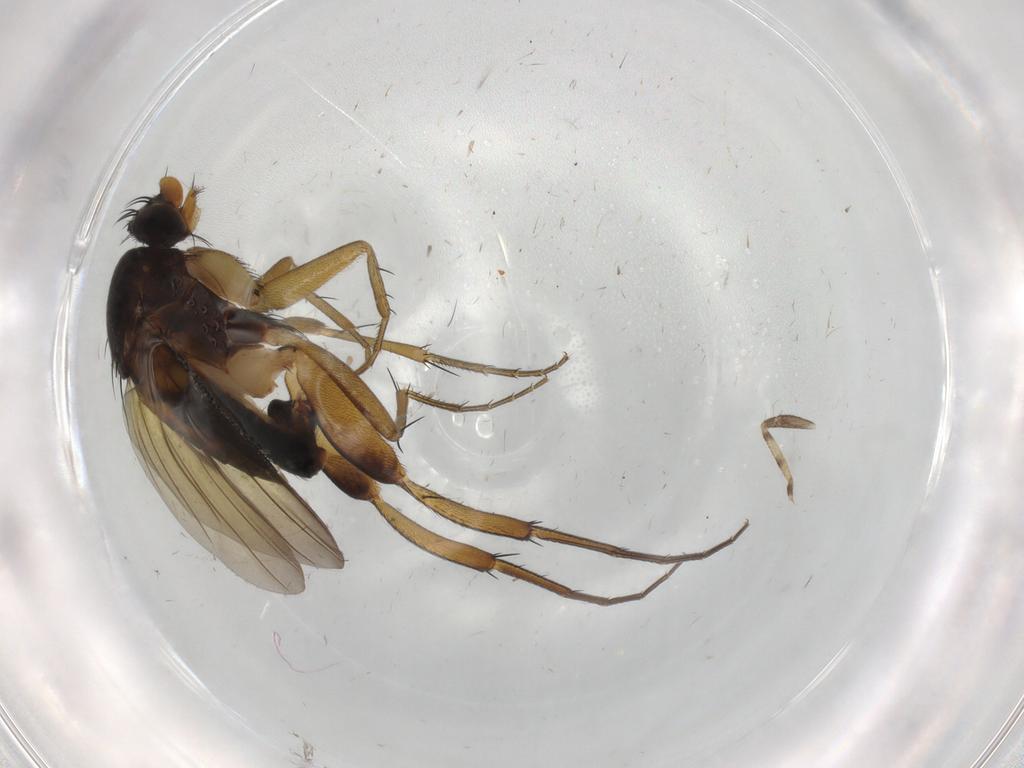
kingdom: Animalia
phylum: Arthropoda
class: Insecta
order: Diptera
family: Phoridae
